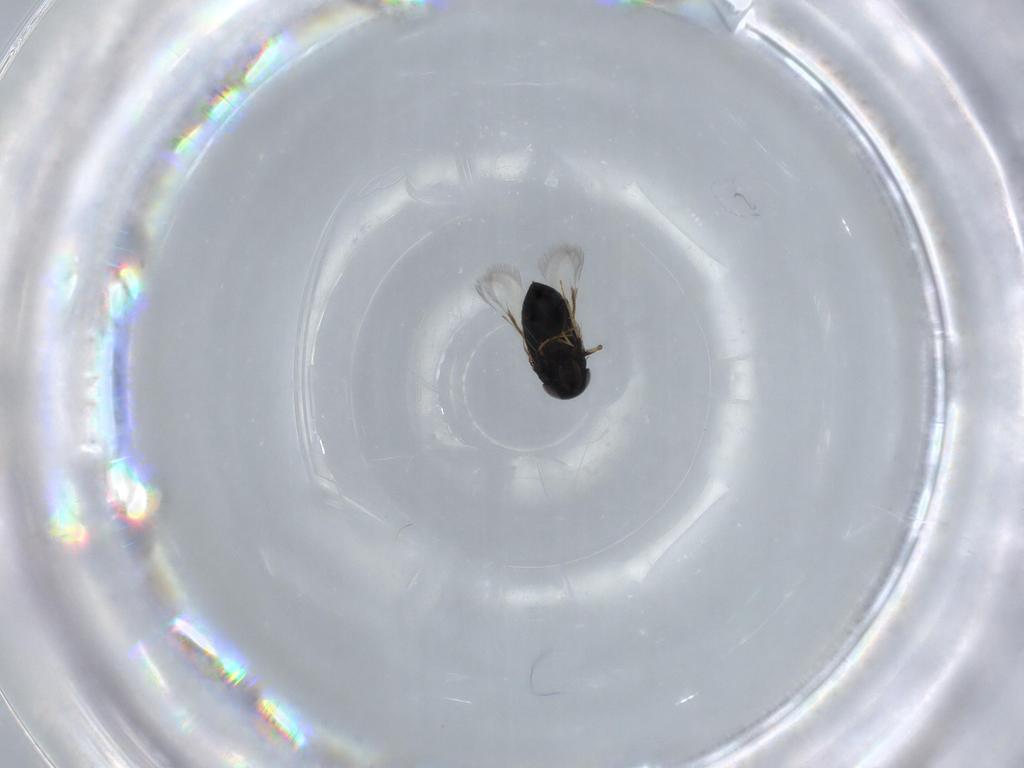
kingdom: Animalia
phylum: Arthropoda
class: Insecta
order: Hymenoptera
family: Signiphoridae
